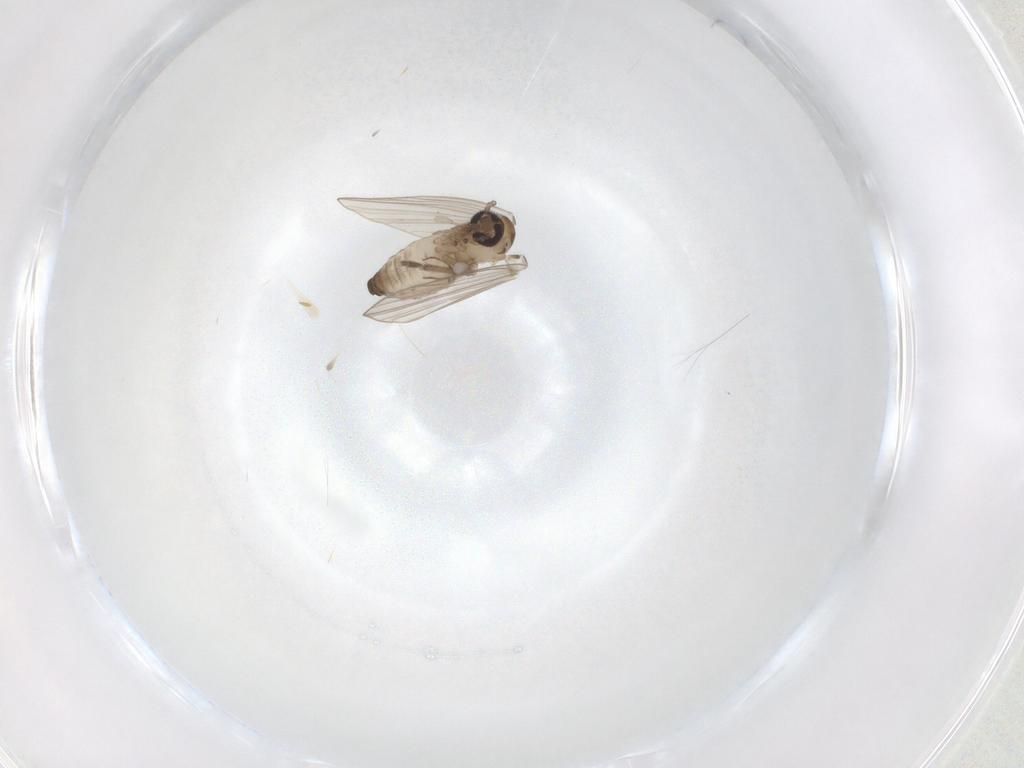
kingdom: Animalia
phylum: Arthropoda
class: Insecta
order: Diptera
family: Psychodidae
